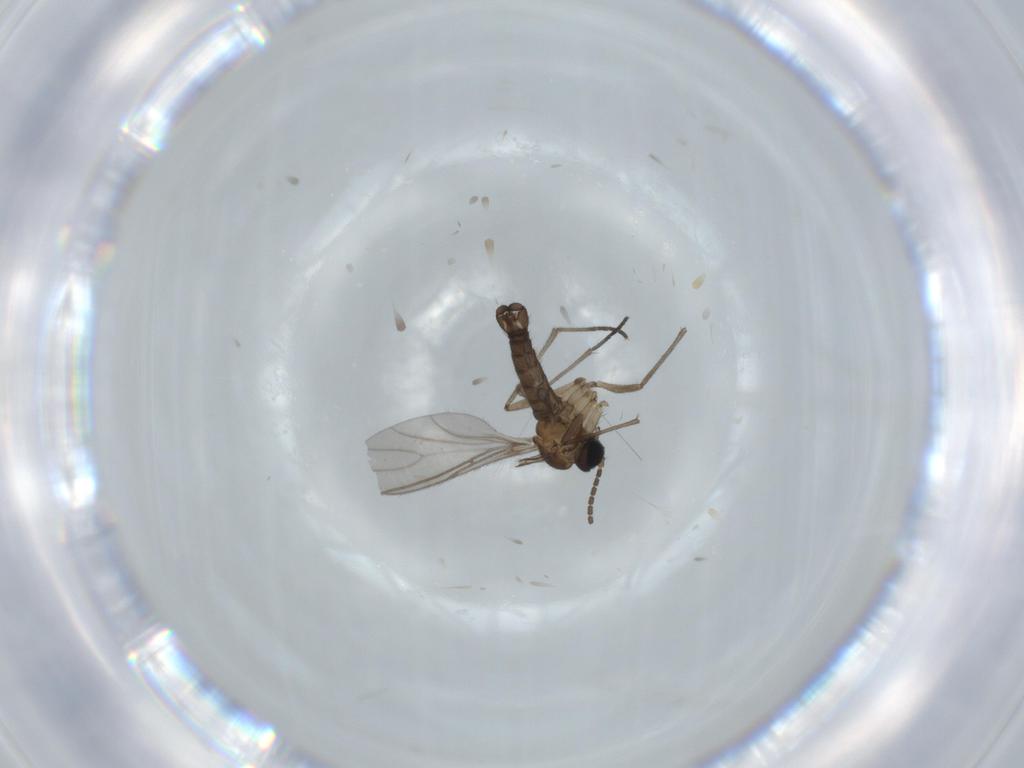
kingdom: Animalia
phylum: Arthropoda
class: Insecta
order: Diptera
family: Sciaridae
